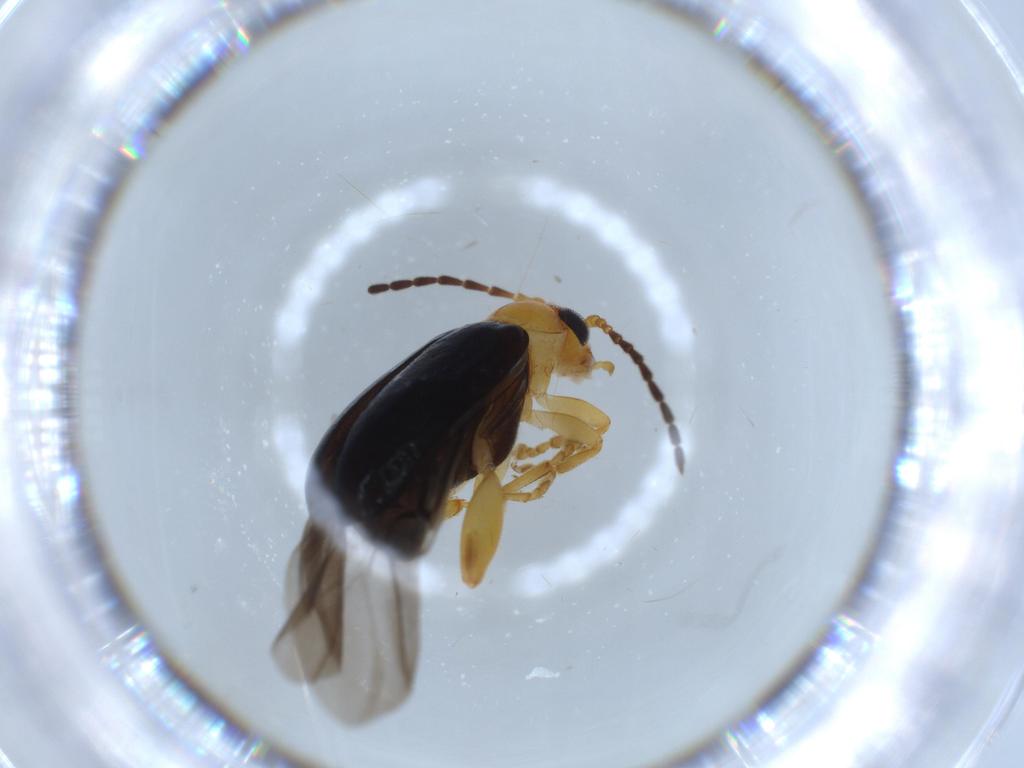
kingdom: Animalia
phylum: Arthropoda
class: Insecta
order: Coleoptera
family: Chrysomelidae
